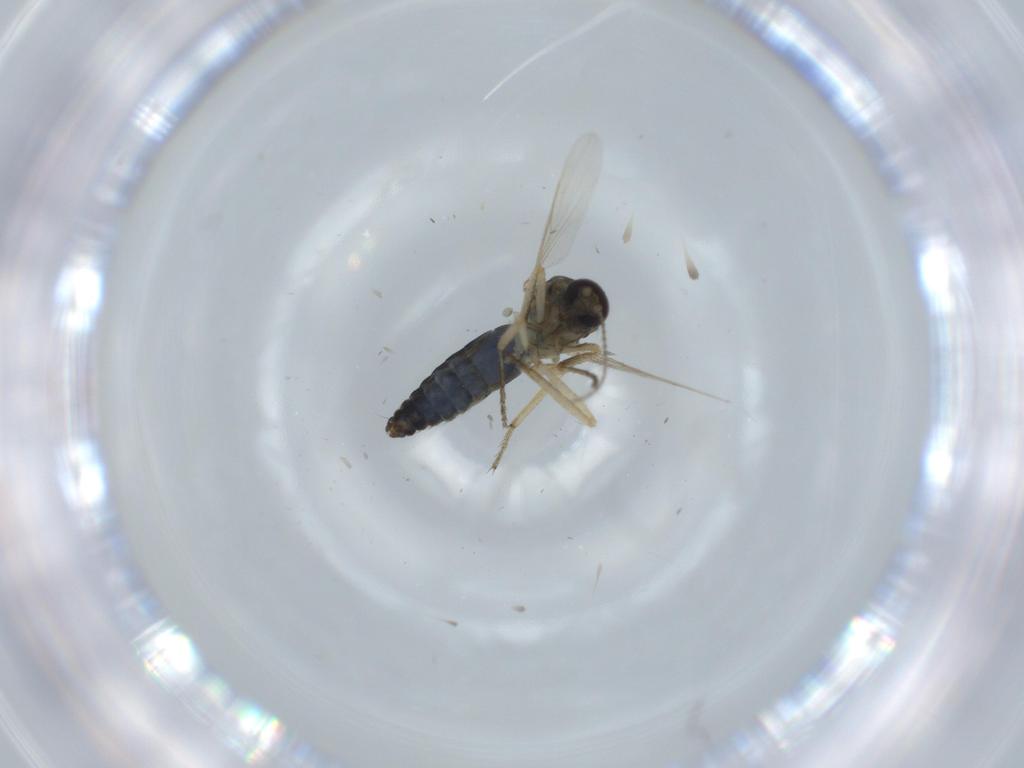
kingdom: Animalia
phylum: Arthropoda
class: Insecta
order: Diptera
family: Ceratopogonidae
